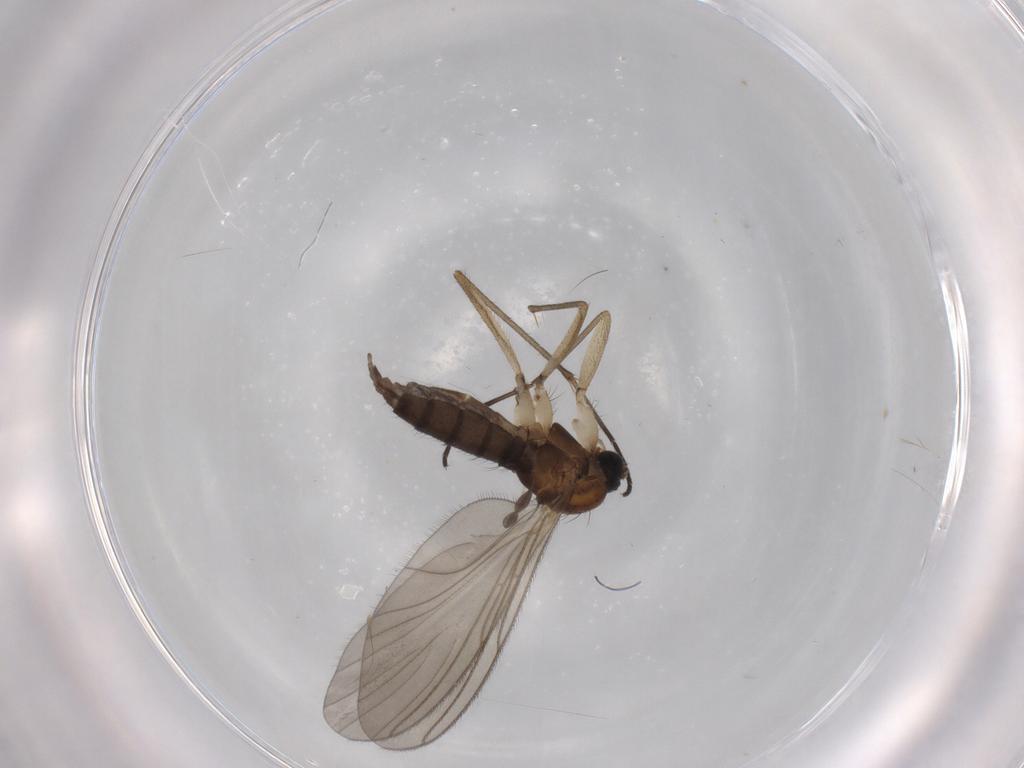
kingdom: Animalia
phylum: Arthropoda
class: Insecta
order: Diptera
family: Sciaridae
